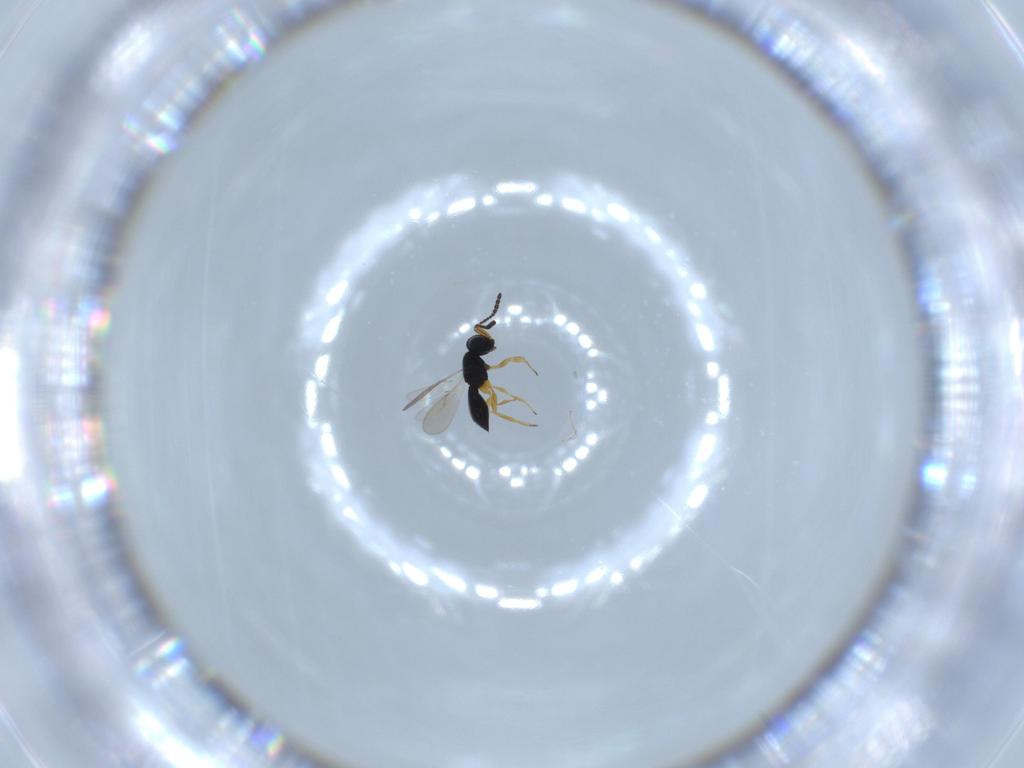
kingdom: Animalia
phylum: Arthropoda
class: Insecta
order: Hymenoptera
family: Scelionidae
